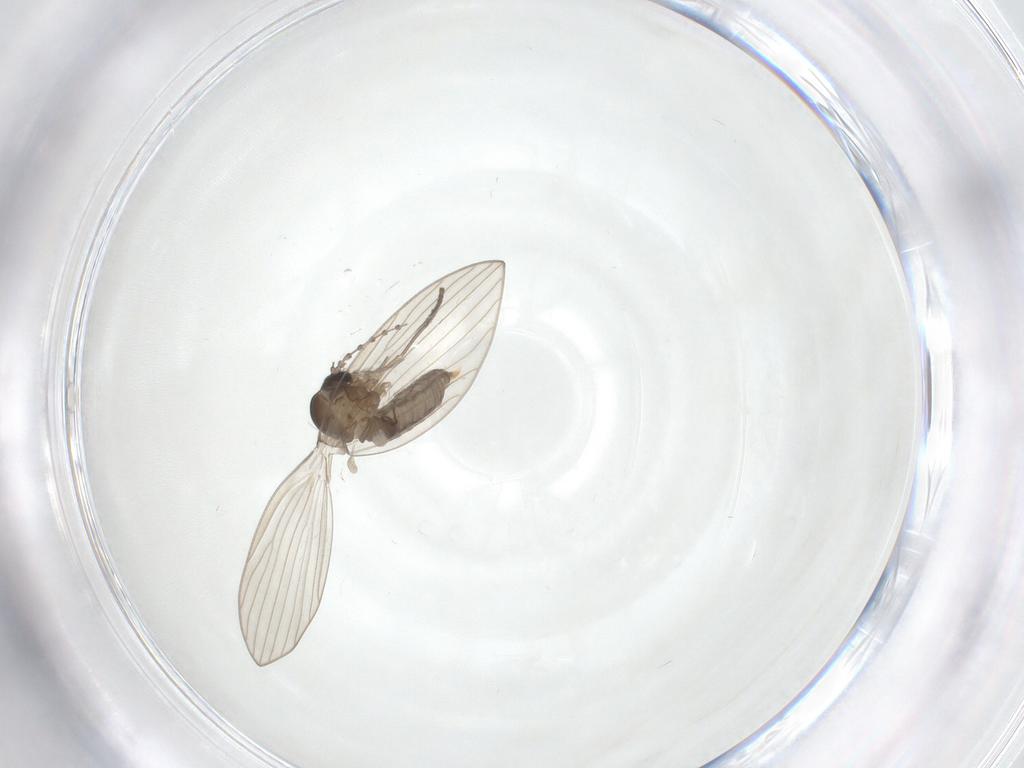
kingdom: Animalia
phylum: Arthropoda
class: Insecta
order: Diptera
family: Psychodidae
